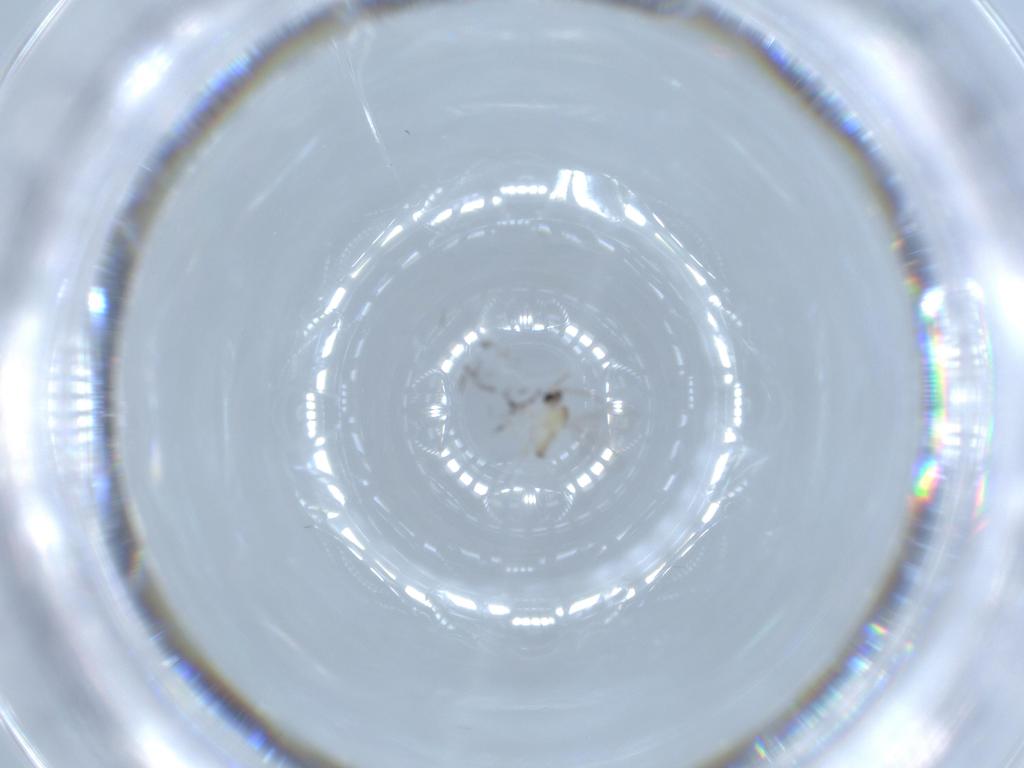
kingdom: Animalia
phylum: Arthropoda
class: Insecta
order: Diptera
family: Cecidomyiidae
